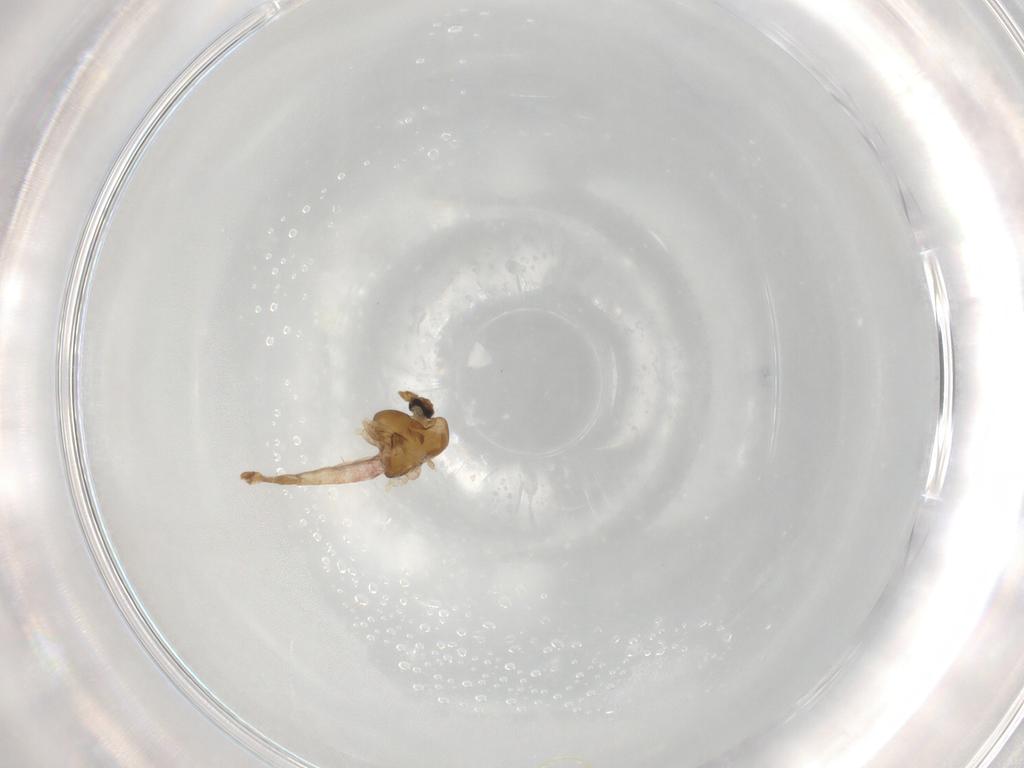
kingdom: Animalia
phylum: Arthropoda
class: Insecta
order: Diptera
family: Chironomidae
